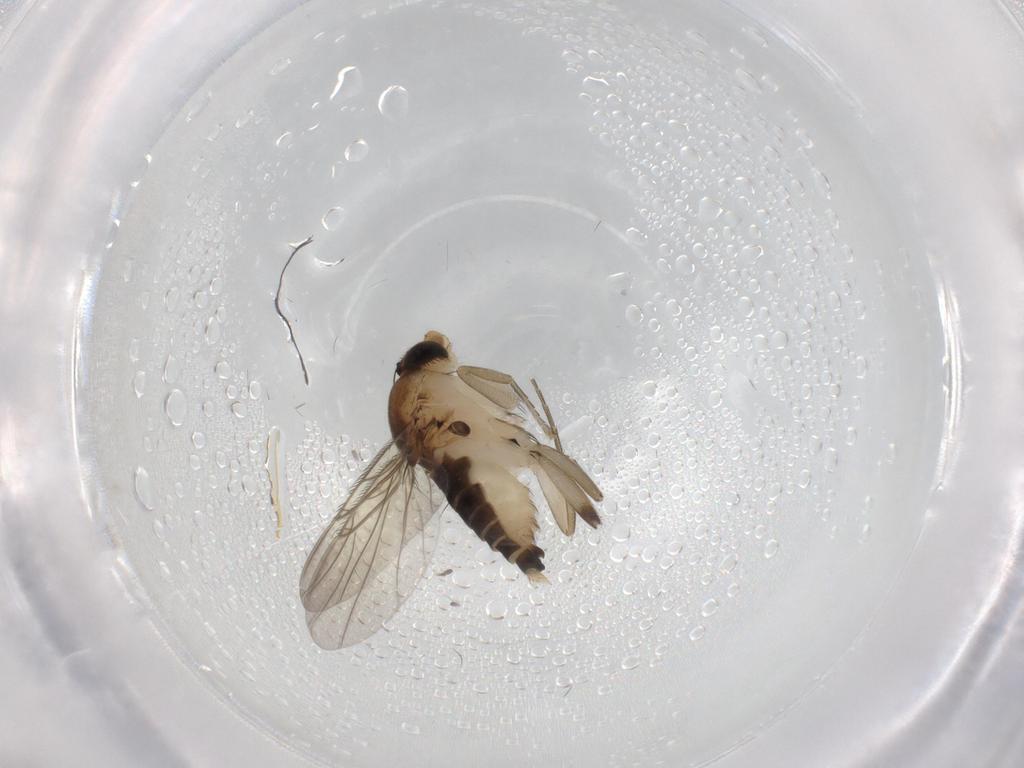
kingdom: Animalia
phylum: Arthropoda
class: Insecta
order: Diptera
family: Phoridae
